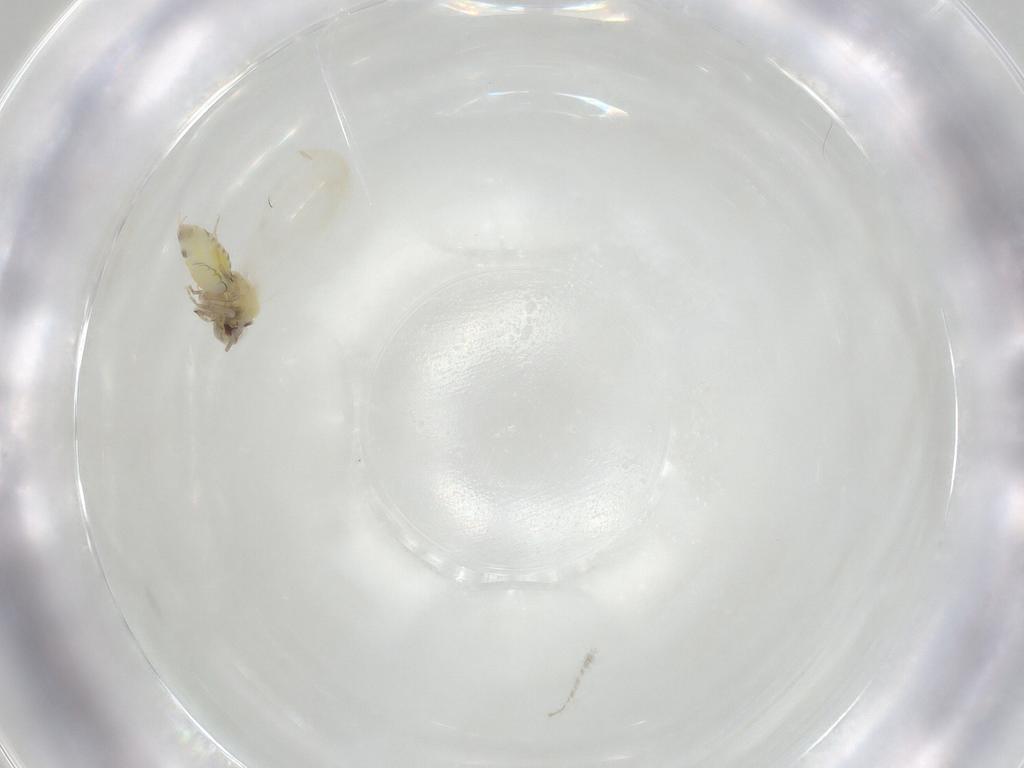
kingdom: Animalia
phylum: Arthropoda
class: Insecta
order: Hemiptera
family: Aleyrodidae
